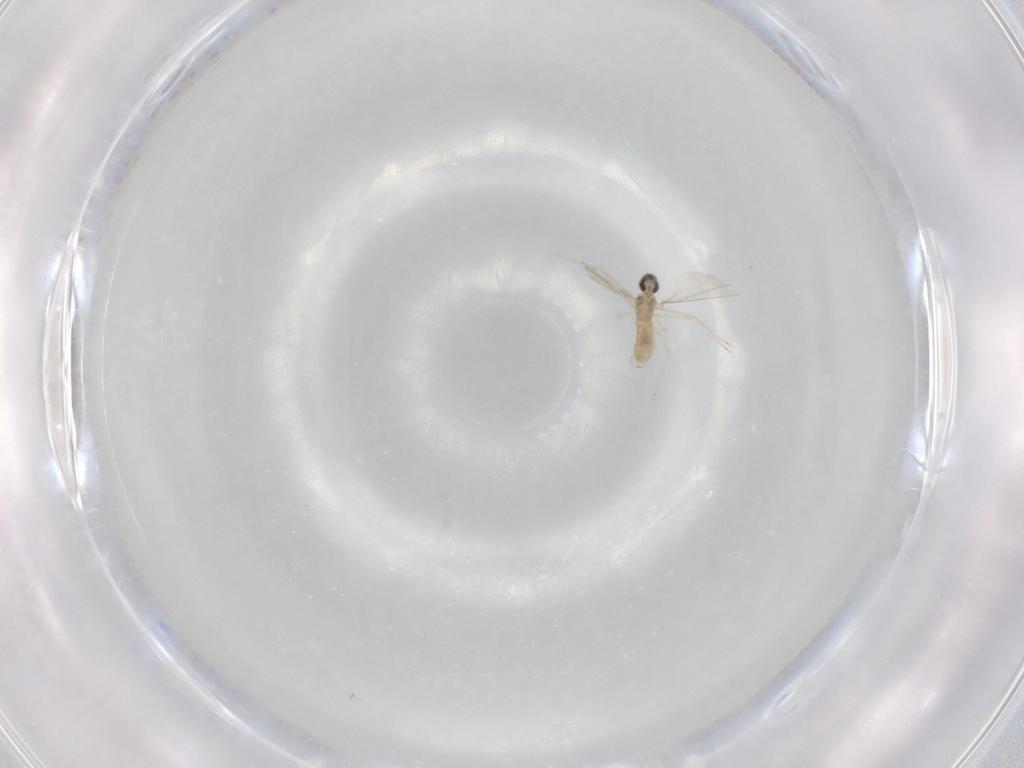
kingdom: Animalia
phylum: Arthropoda
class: Insecta
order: Diptera
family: Cecidomyiidae
